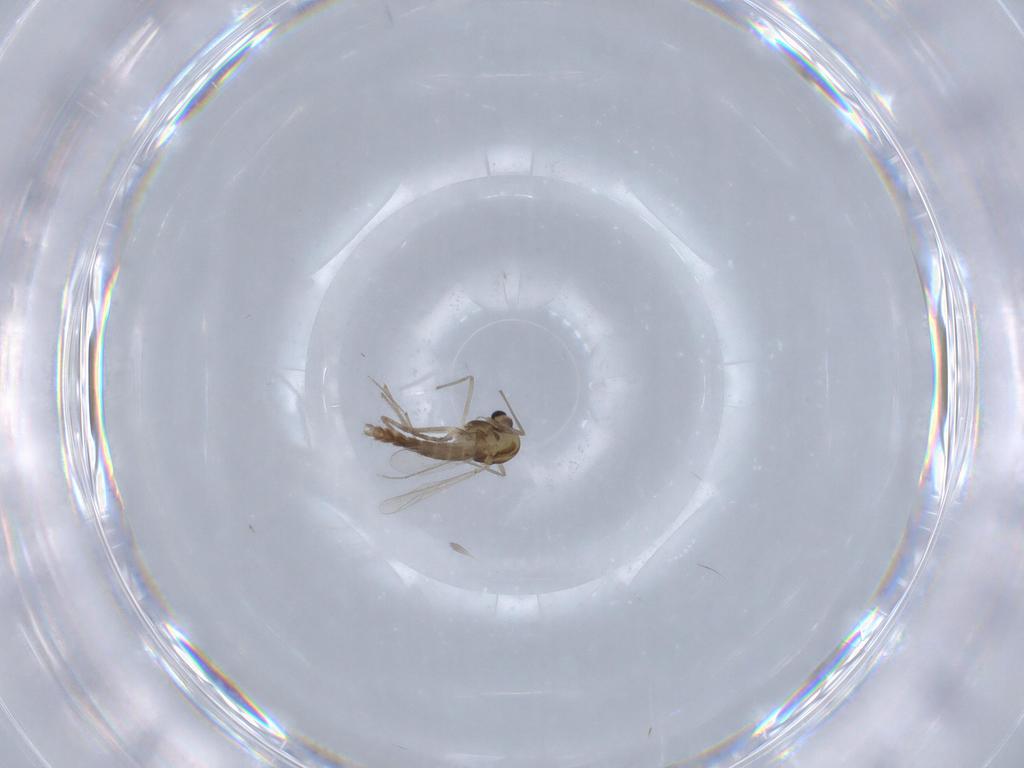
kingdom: Animalia
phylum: Arthropoda
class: Insecta
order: Diptera
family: Chironomidae
